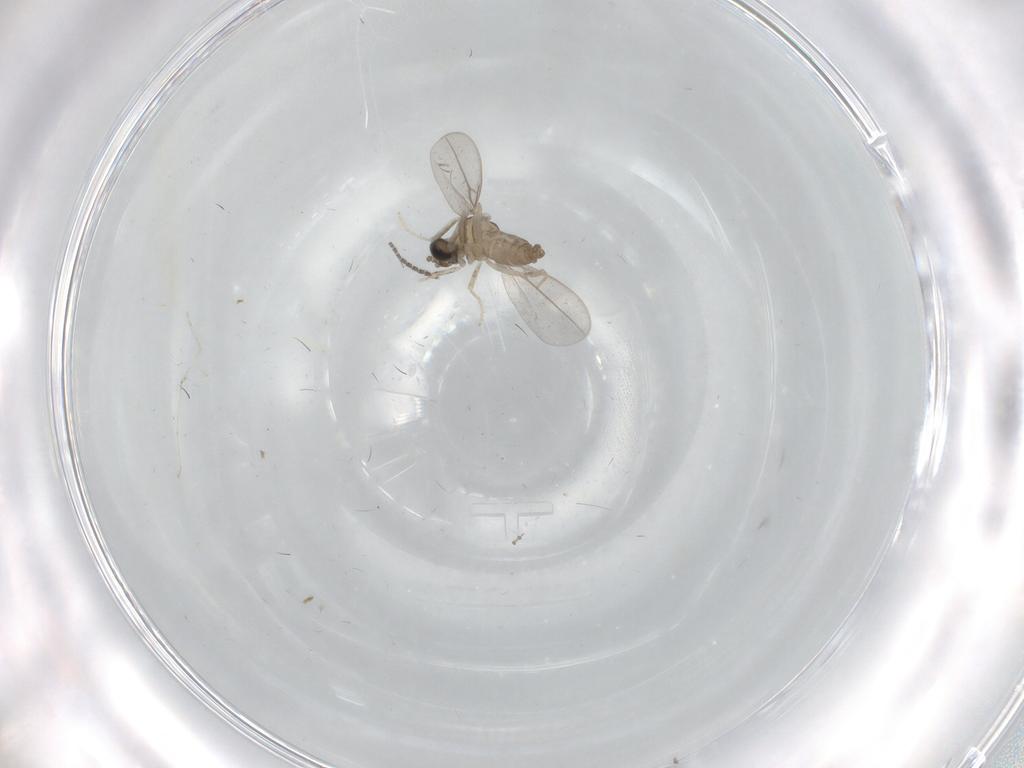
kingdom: Animalia
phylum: Arthropoda
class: Insecta
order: Diptera
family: Cecidomyiidae
